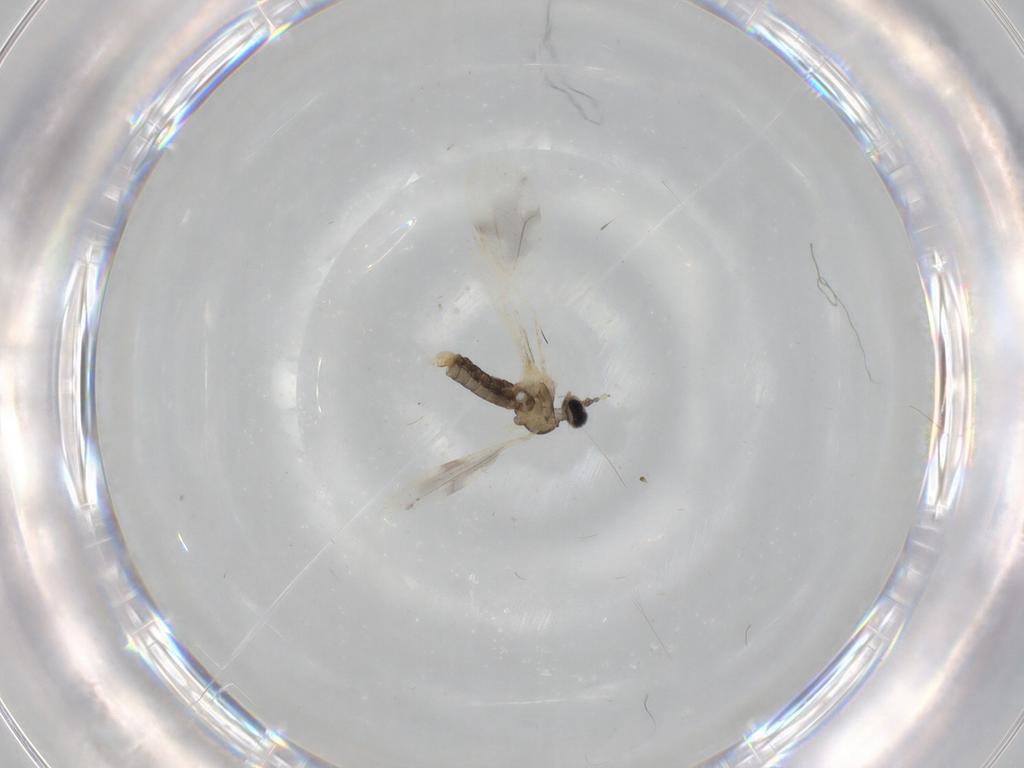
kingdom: Animalia
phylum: Arthropoda
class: Insecta
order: Diptera
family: Cecidomyiidae
